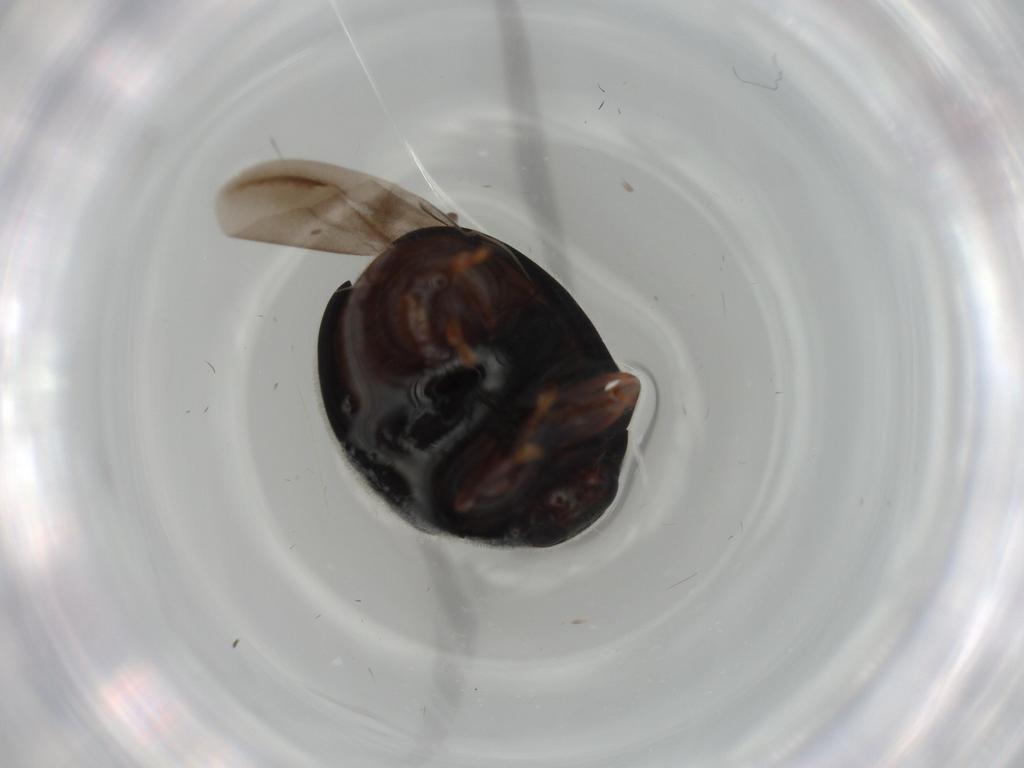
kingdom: Animalia
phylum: Arthropoda
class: Insecta
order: Coleoptera
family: Coccinellidae
